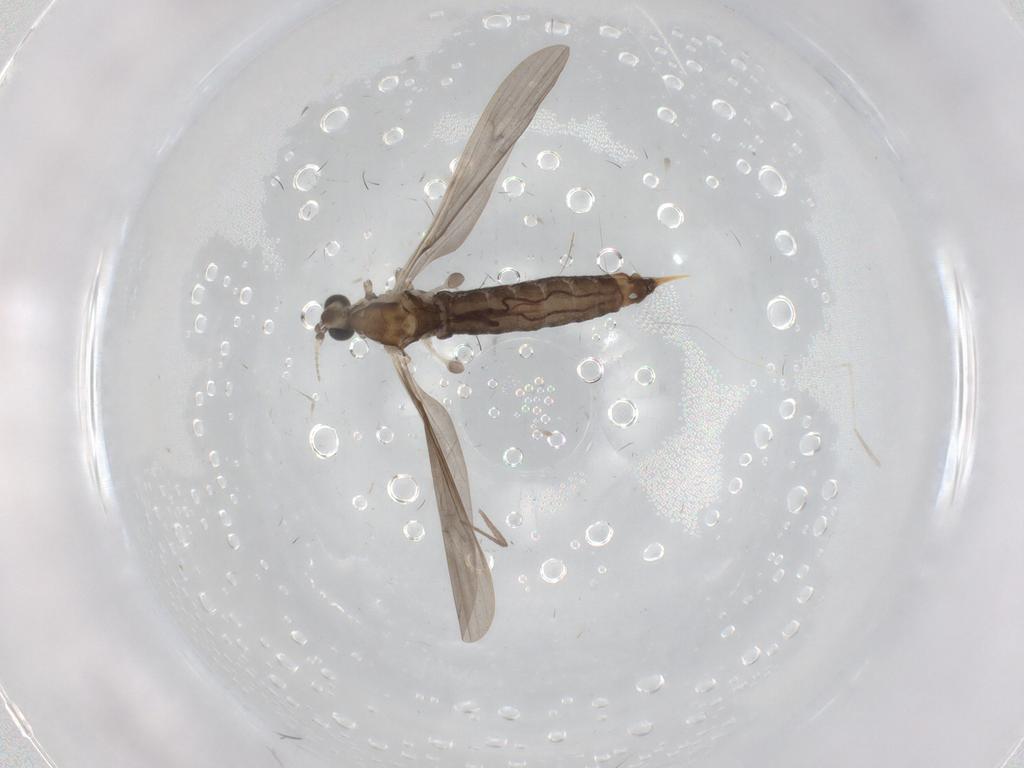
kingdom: Animalia
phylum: Arthropoda
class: Insecta
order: Diptera
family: Limoniidae
